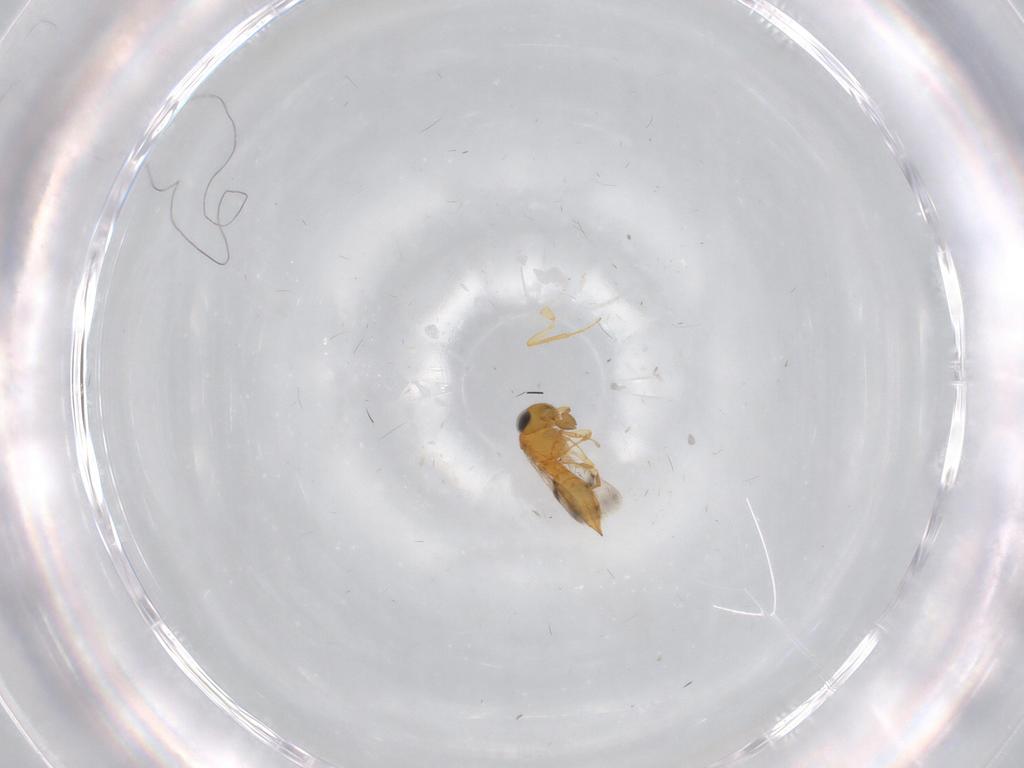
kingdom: Animalia
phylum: Arthropoda
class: Insecta
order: Hymenoptera
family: Scelionidae
